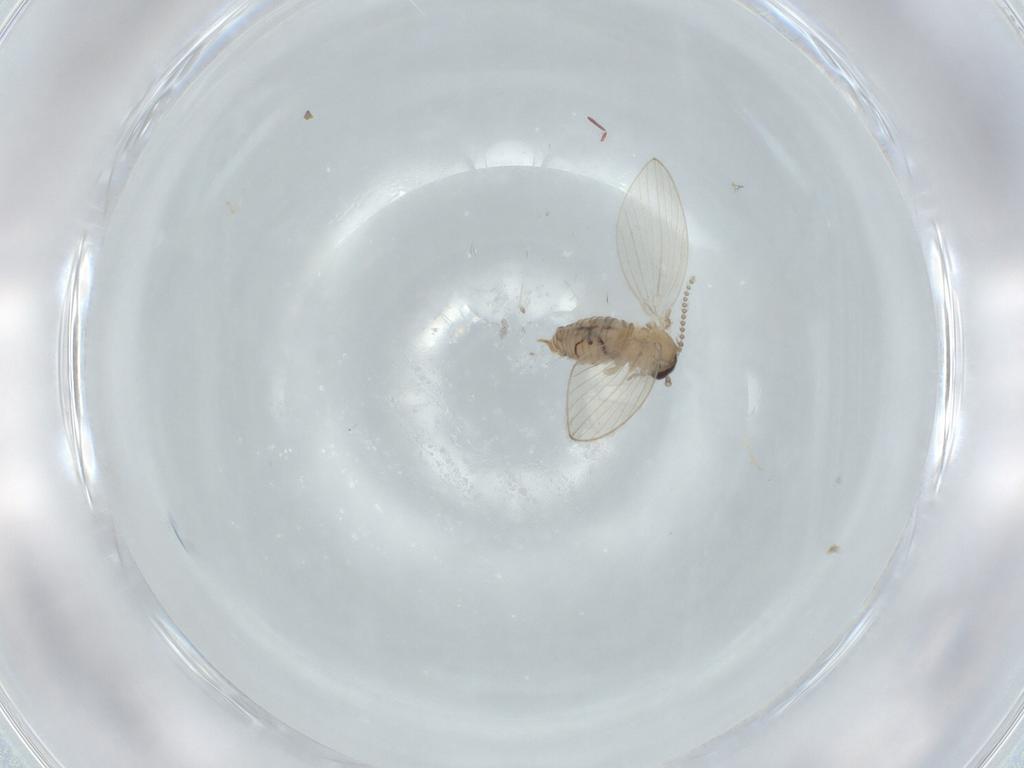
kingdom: Animalia
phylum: Arthropoda
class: Insecta
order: Diptera
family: Psychodidae
